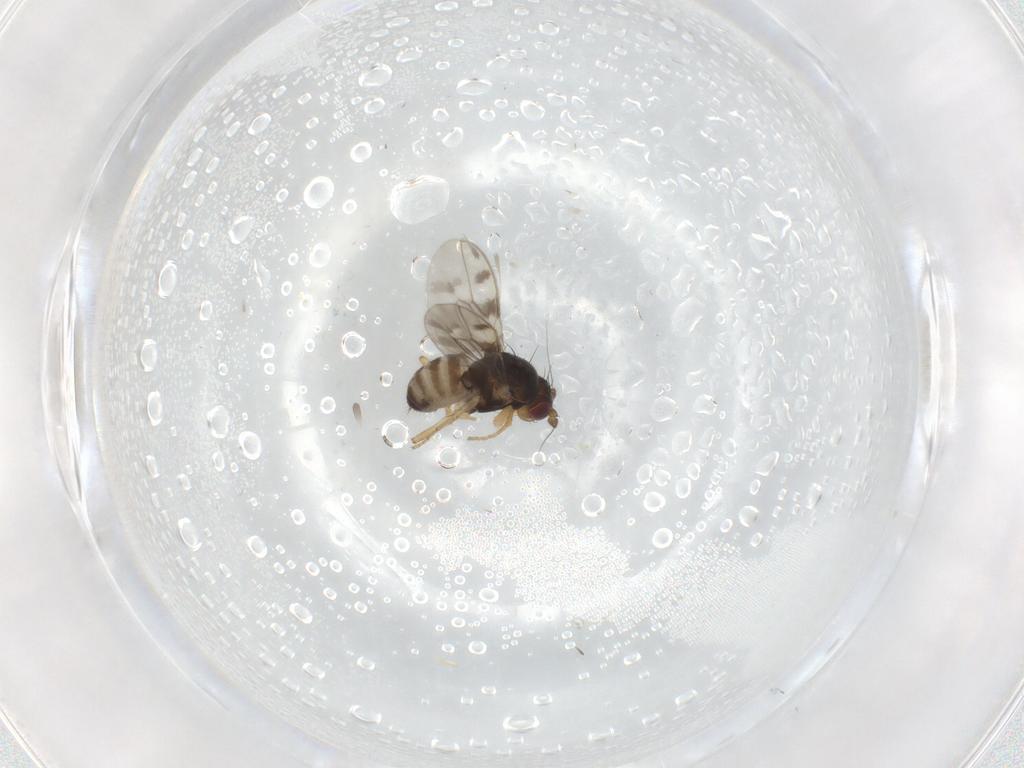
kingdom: Animalia
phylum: Arthropoda
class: Insecta
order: Diptera
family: Sphaeroceridae
